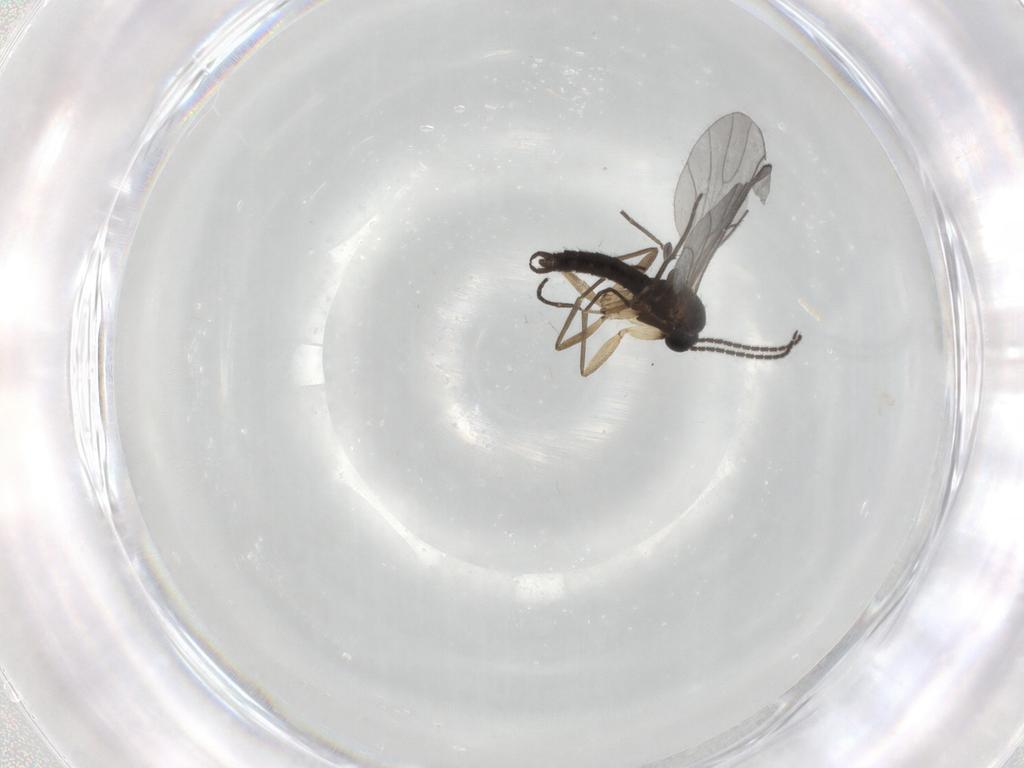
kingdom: Animalia
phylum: Arthropoda
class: Insecta
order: Diptera
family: Sciaridae
